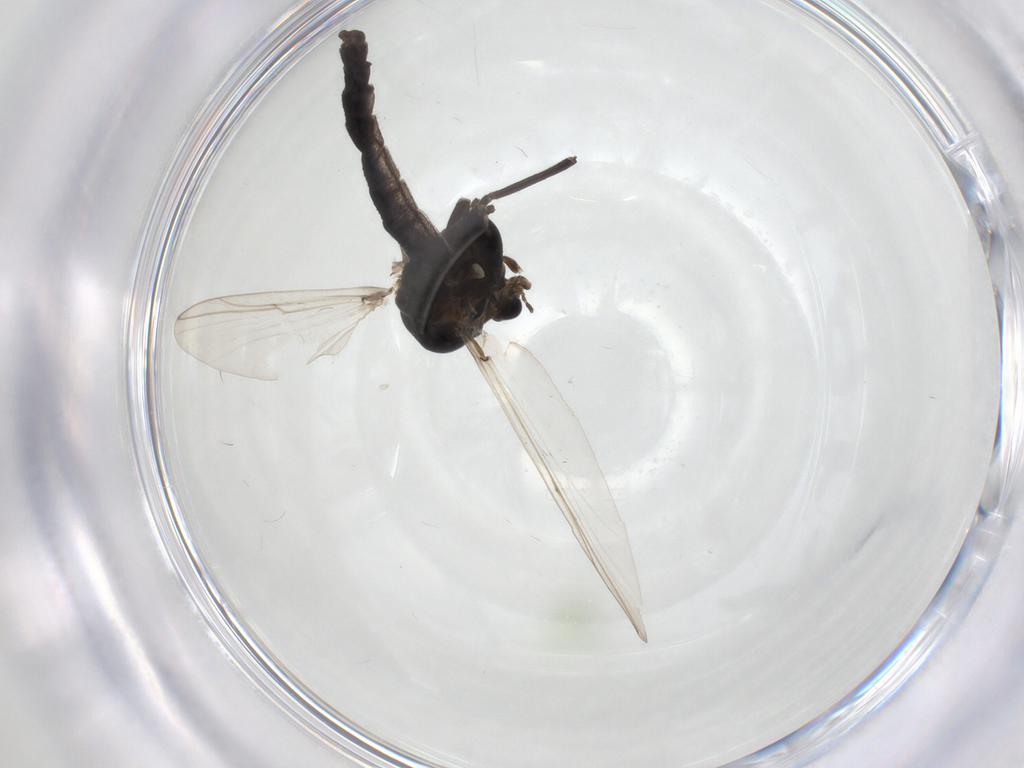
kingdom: Animalia
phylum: Arthropoda
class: Insecta
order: Diptera
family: Chironomidae
